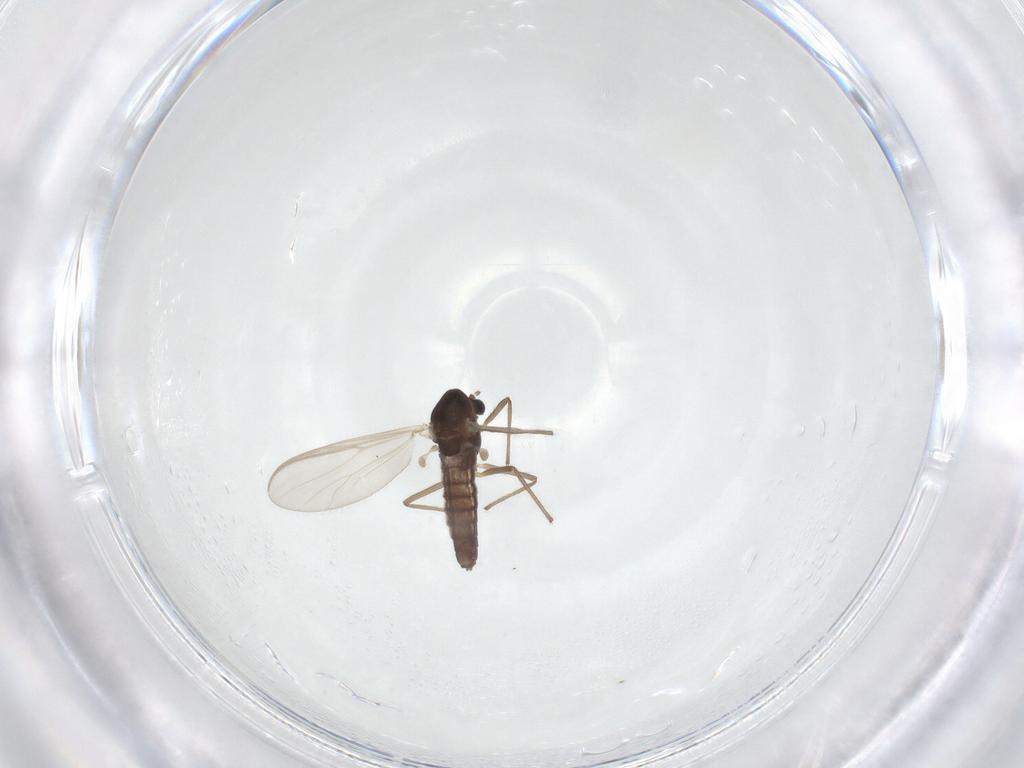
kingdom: Animalia
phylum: Arthropoda
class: Insecta
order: Diptera
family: Chironomidae
